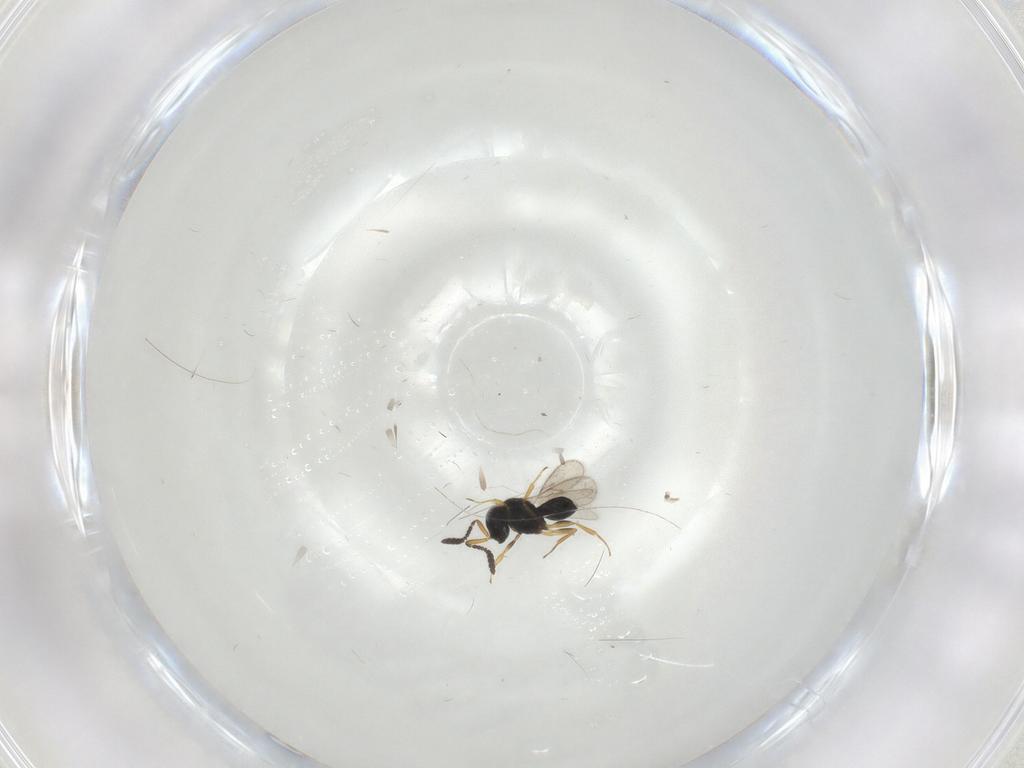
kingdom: Animalia
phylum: Arthropoda
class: Insecta
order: Hymenoptera
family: Scelionidae
